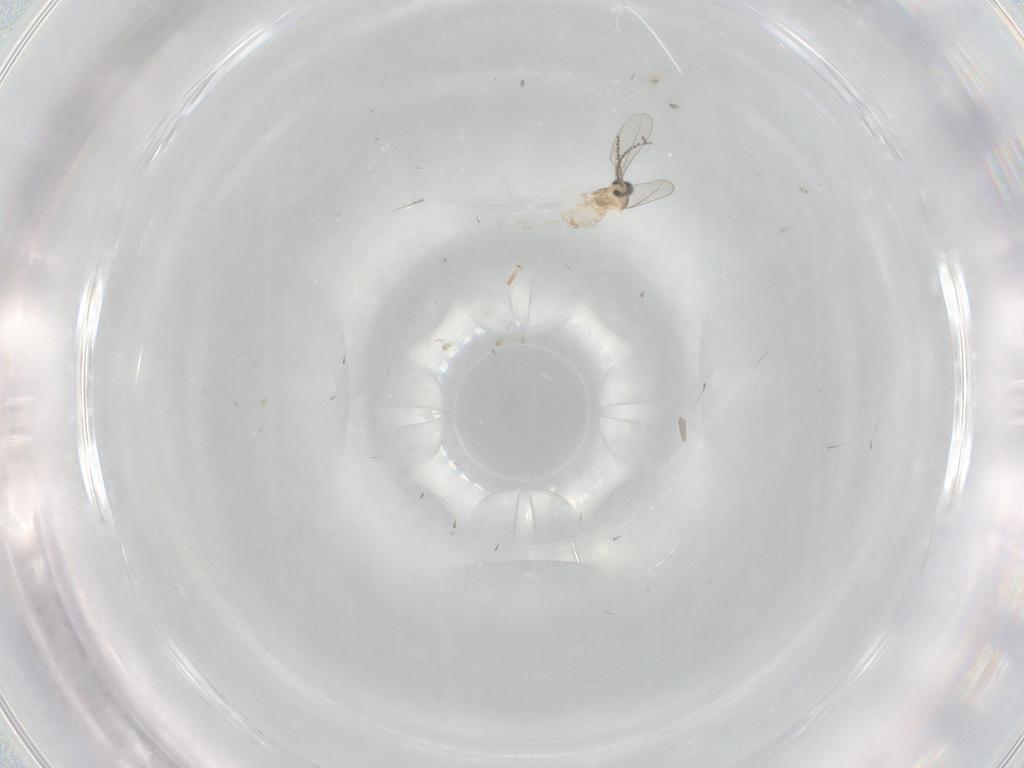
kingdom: Animalia
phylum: Arthropoda
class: Insecta
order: Diptera
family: Cecidomyiidae
